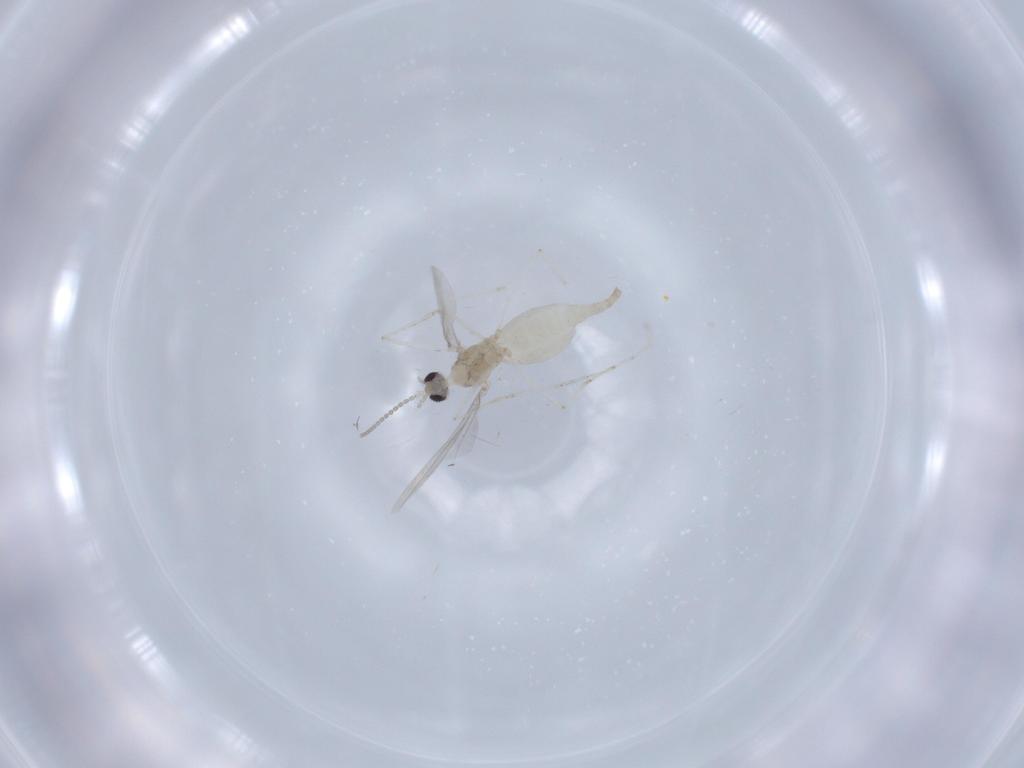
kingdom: Animalia
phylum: Arthropoda
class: Insecta
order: Diptera
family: Cecidomyiidae
